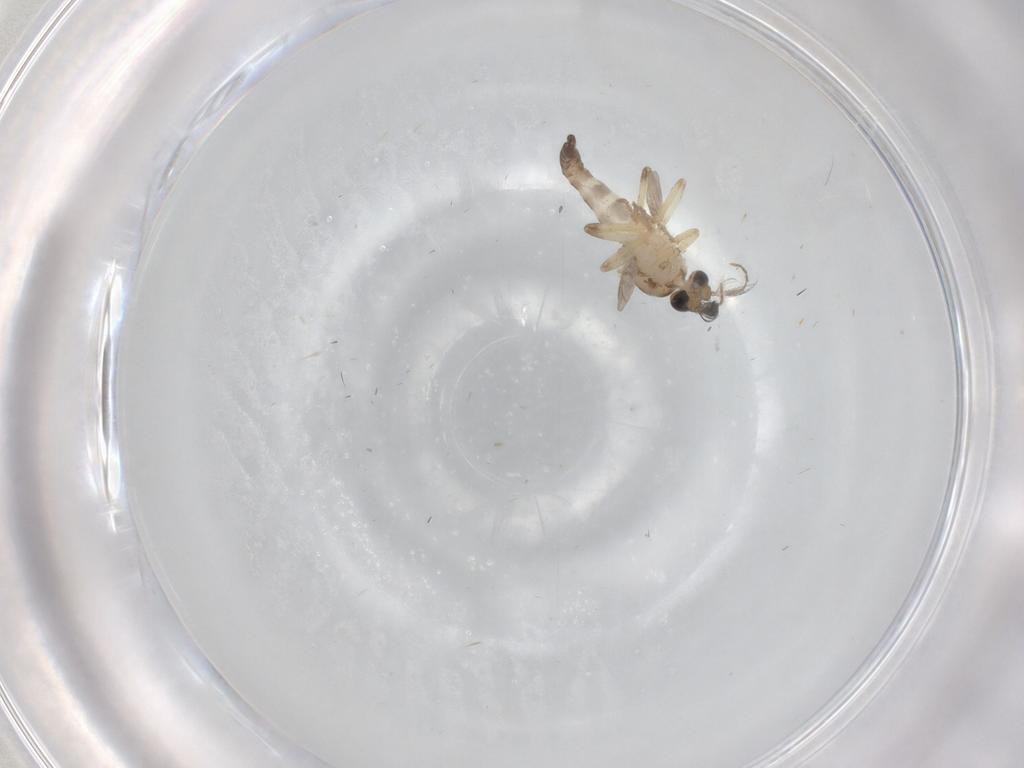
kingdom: Animalia
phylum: Arthropoda
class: Insecta
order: Diptera
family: Ceratopogonidae
